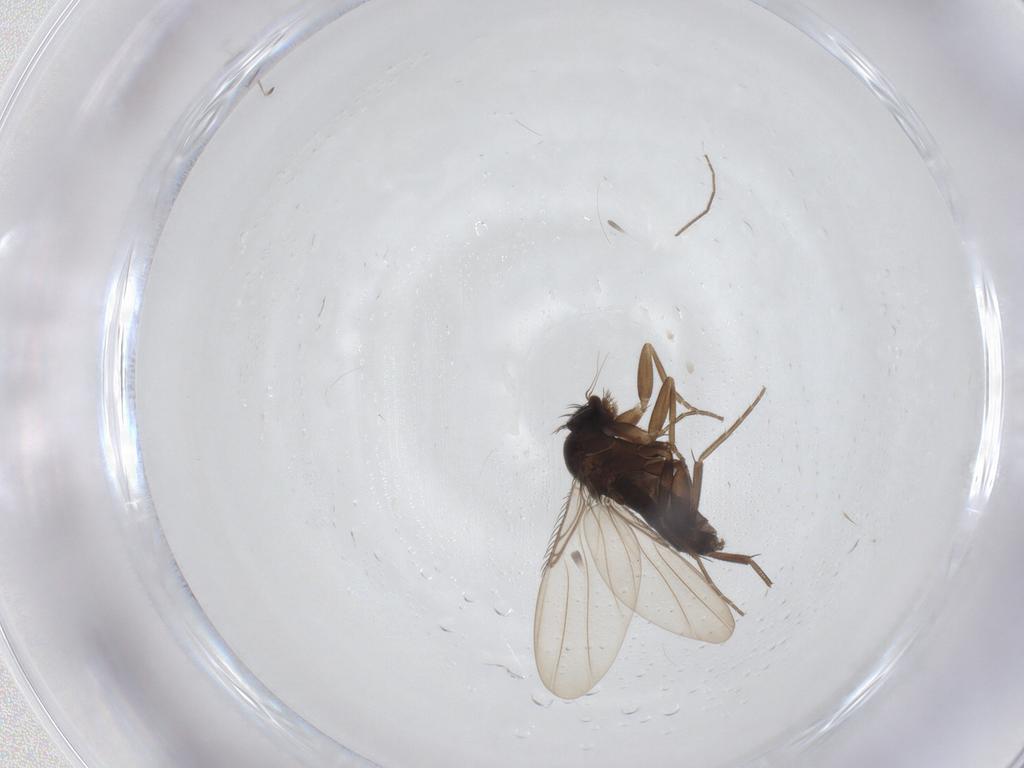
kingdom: Animalia
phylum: Arthropoda
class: Insecta
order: Diptera
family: Phoridae
